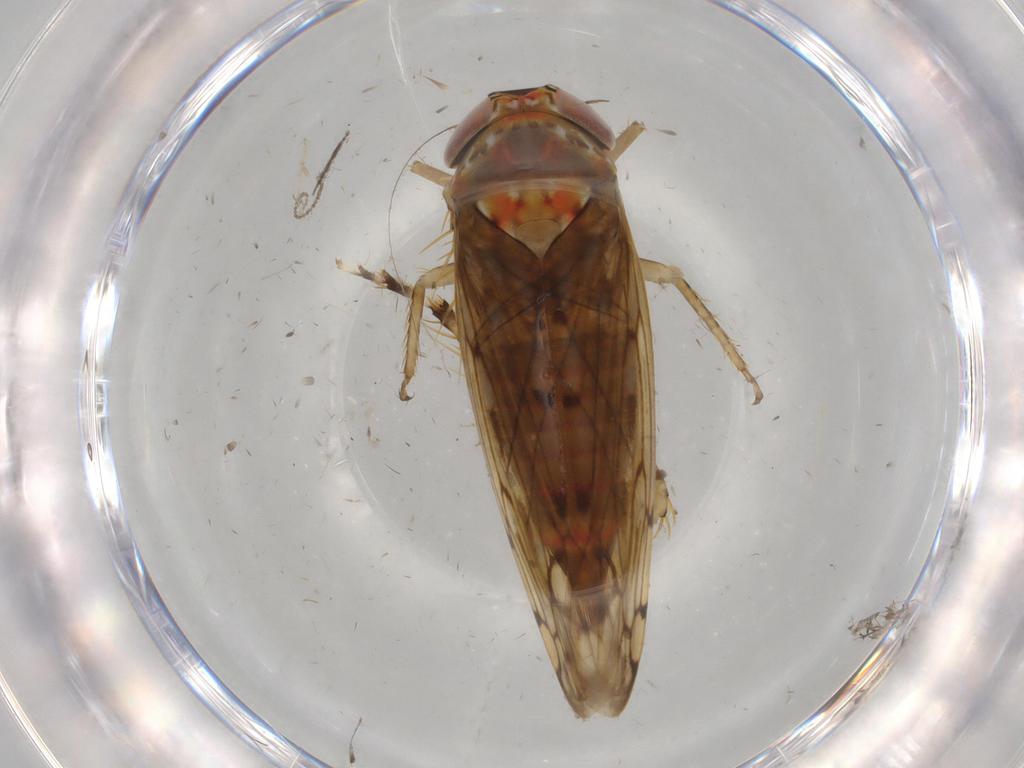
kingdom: Animalia
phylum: Arthropoda
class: Insecta
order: Hemiptera
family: Cicadellidae
